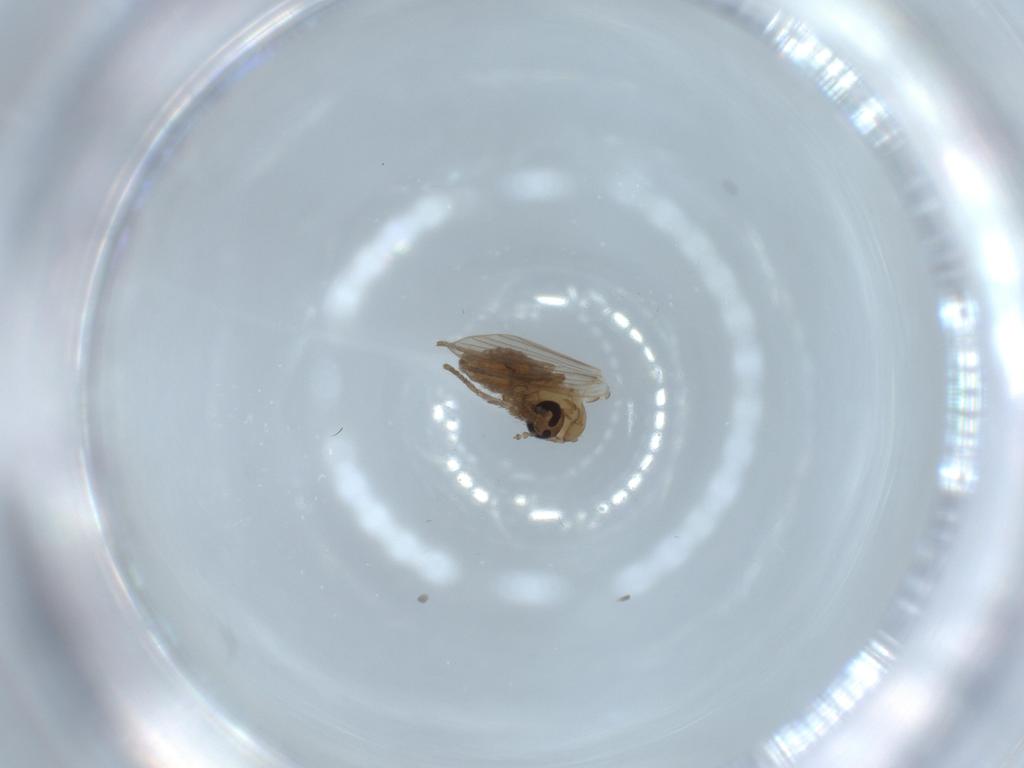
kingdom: Animalia
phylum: Arthropoda
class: Insecta
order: Diptera
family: Psychodidae
